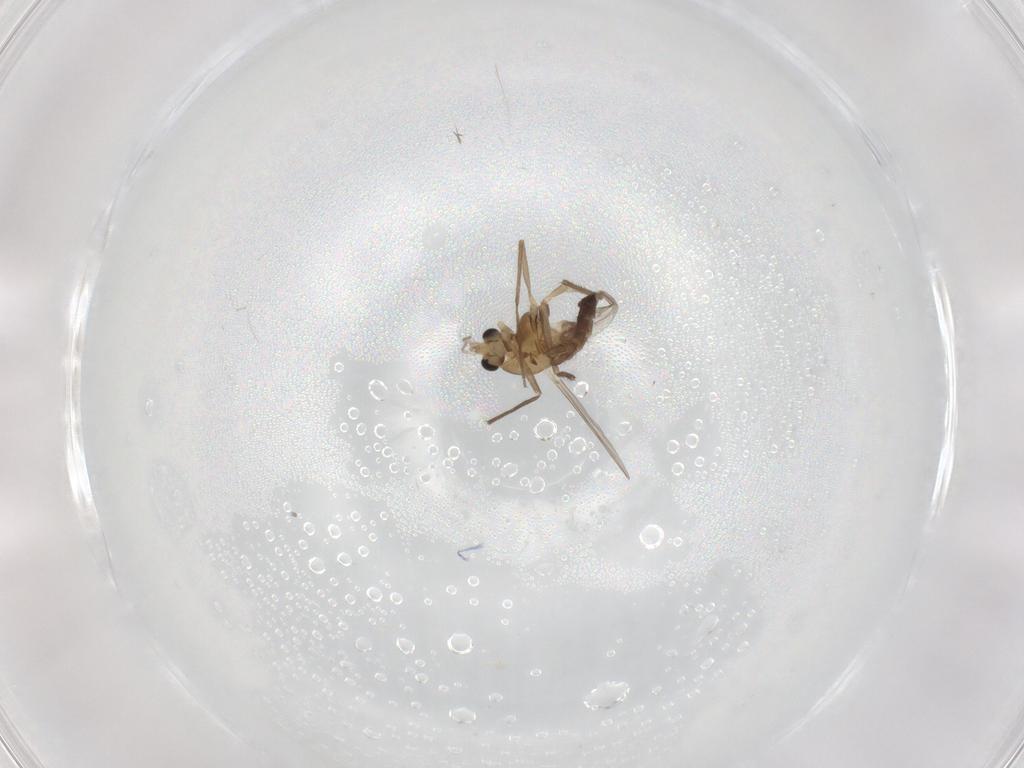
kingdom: Animalia
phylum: Arthropoda
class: Insecta
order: Diptera
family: Chironomidae
